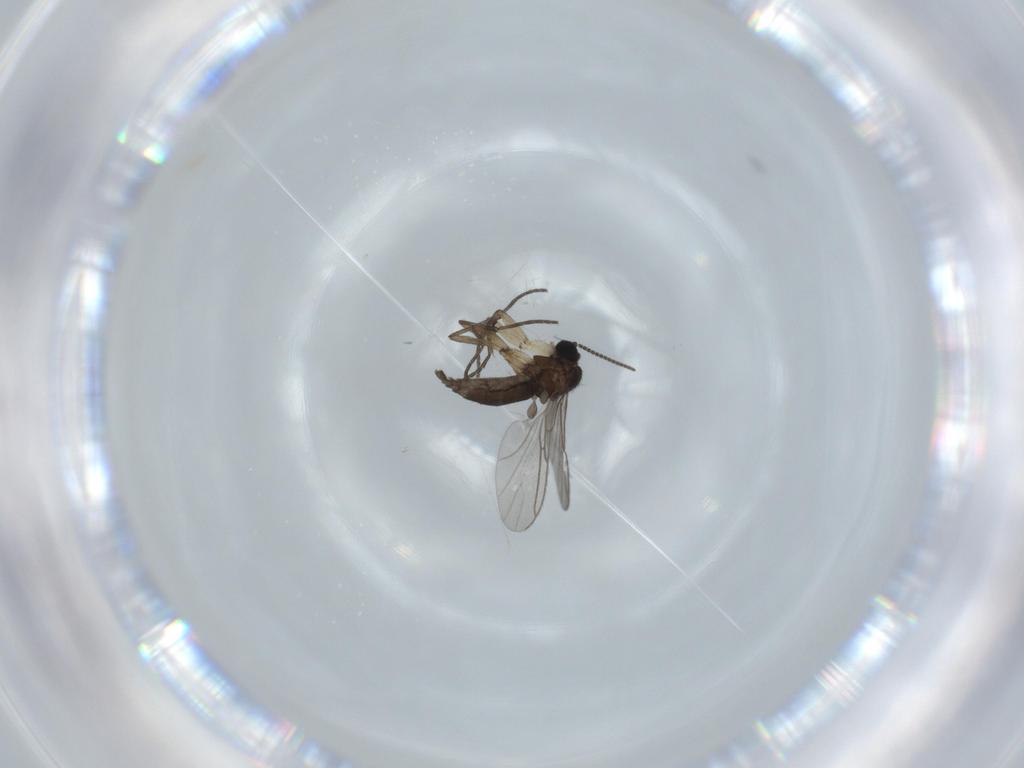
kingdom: Animalia
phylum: Arthropoda
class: Insecta
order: Diptera
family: Sciaridae
